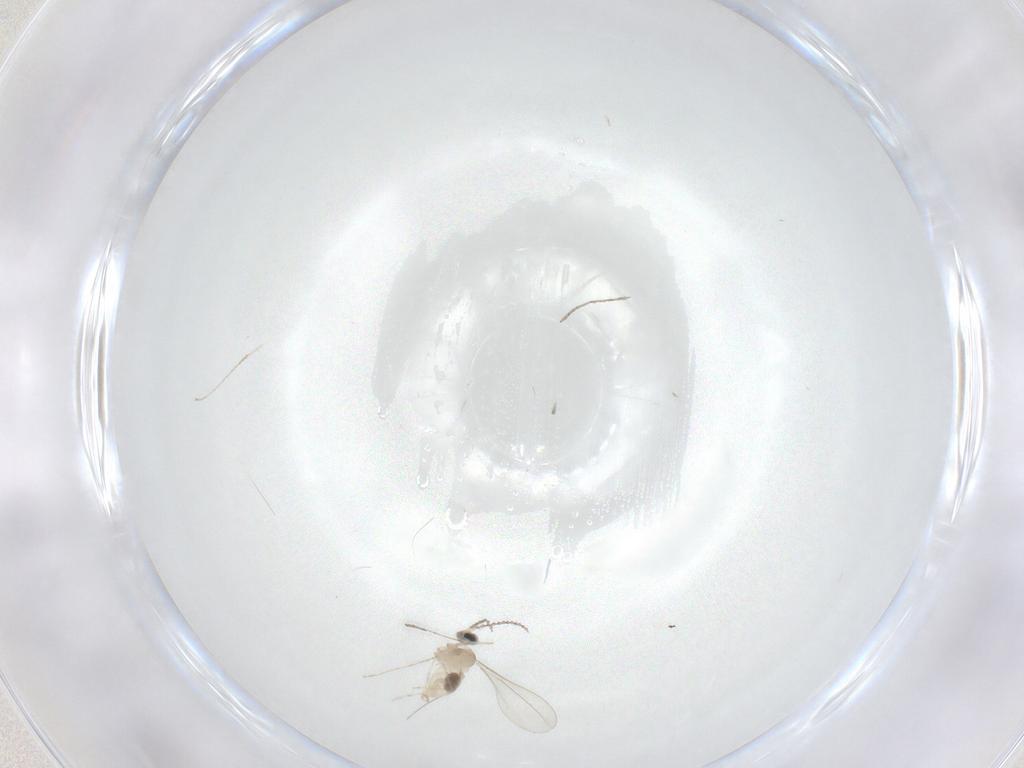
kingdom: Animalia
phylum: Arthropoda
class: Insecta
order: Diptera
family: Cecidomyiidae
